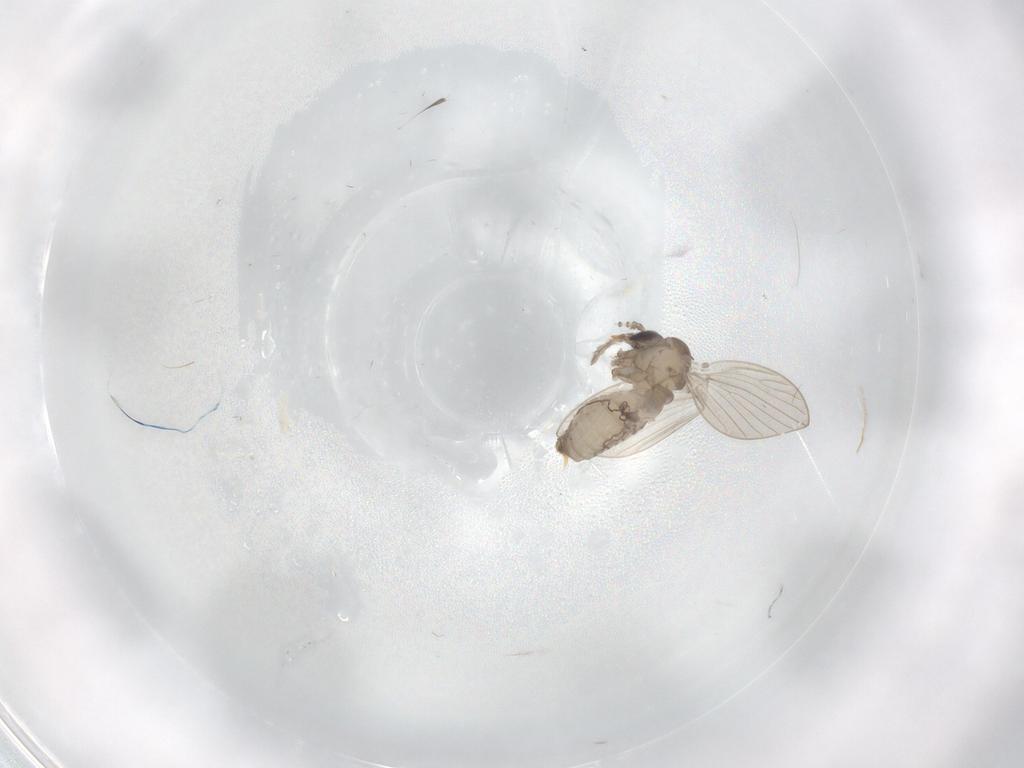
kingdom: Animalia
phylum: Arthropoda
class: Insecta
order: Diptera
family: Psychodidae
